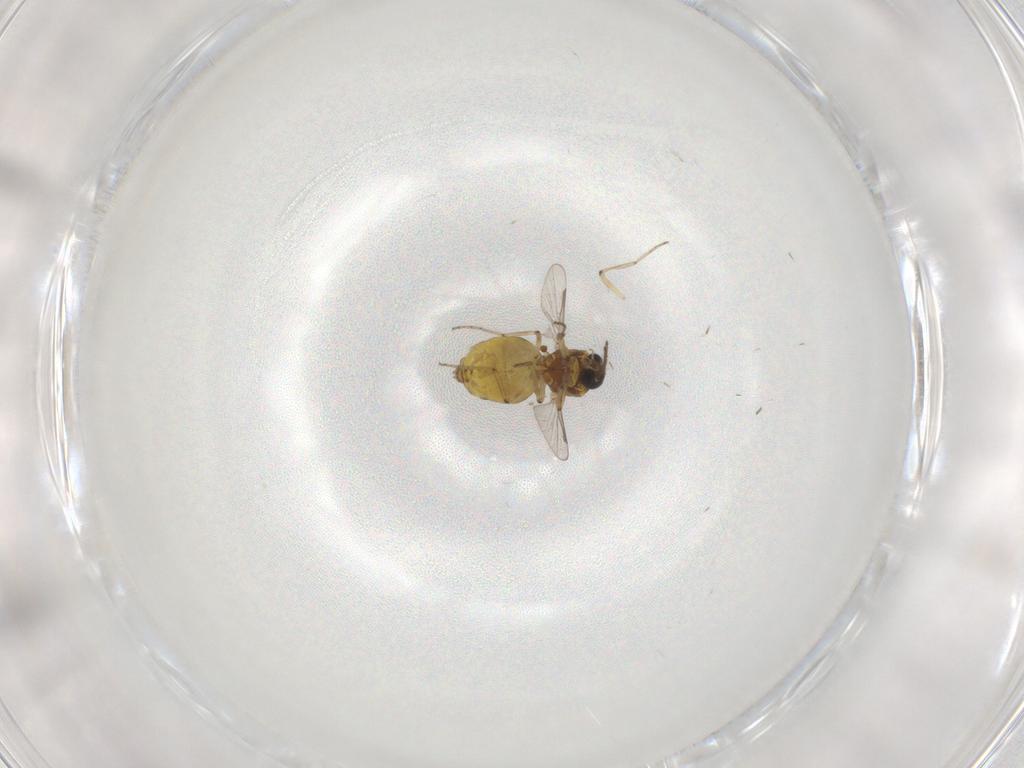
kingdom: Animalia
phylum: Arthropoda
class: Insecta
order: Diptera
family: Ceratopogonidae
